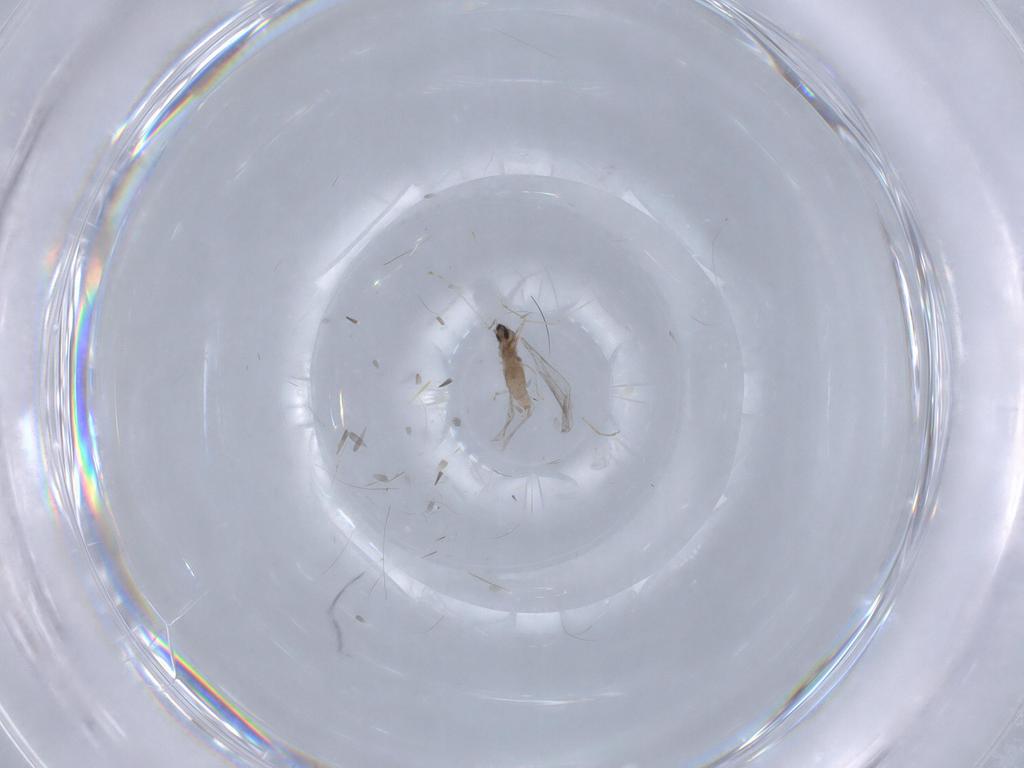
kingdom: Animalia
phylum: Arthropoda
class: Insecta
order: Diptera
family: Cecidomyiidae
